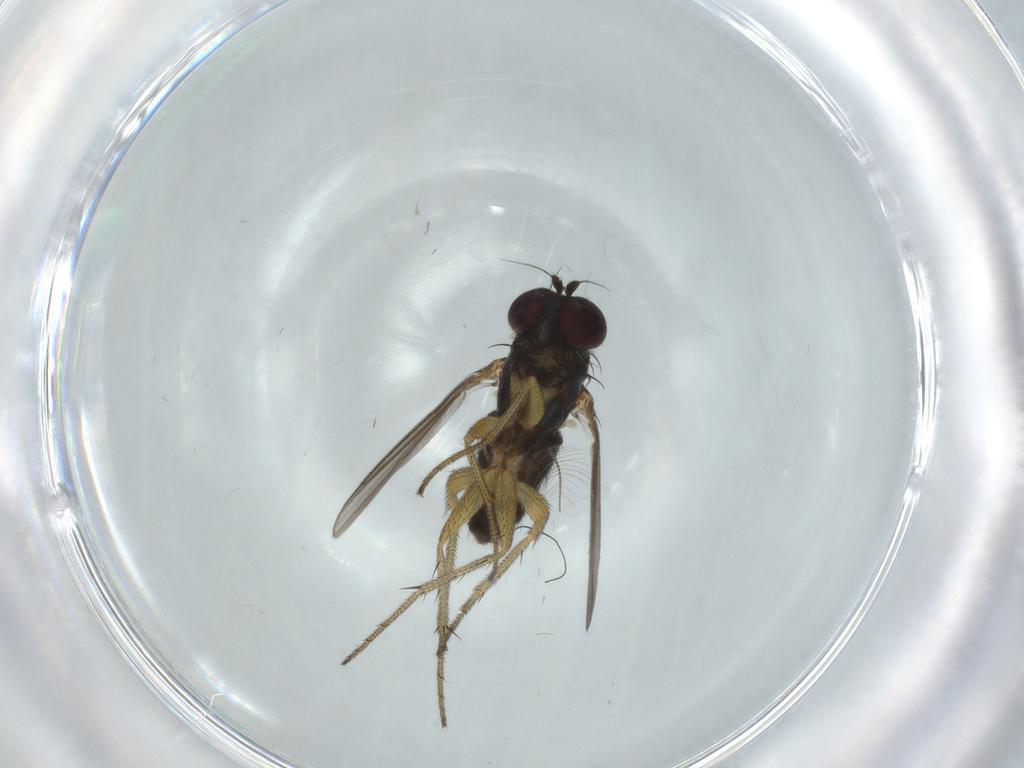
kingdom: Animalia
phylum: Arthropoda
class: Insecta
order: Diptera
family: Dolichopodidae
